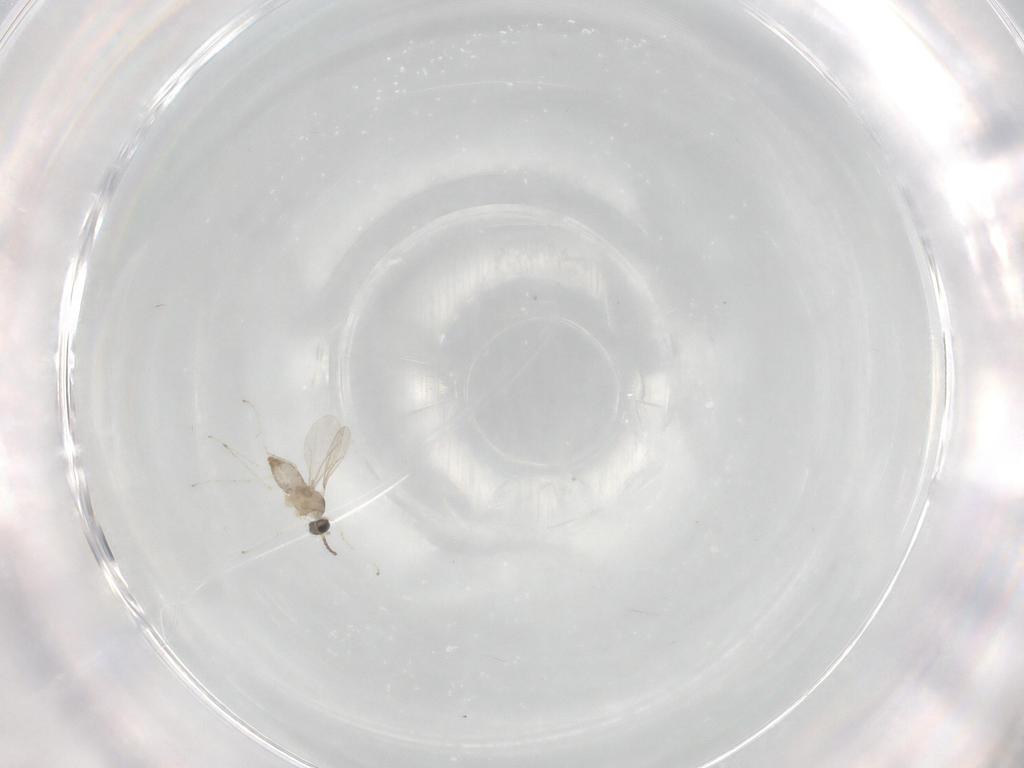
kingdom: Animalia
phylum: Arthropoda
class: Insecta
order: Diptera
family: Cecidomyiidae
